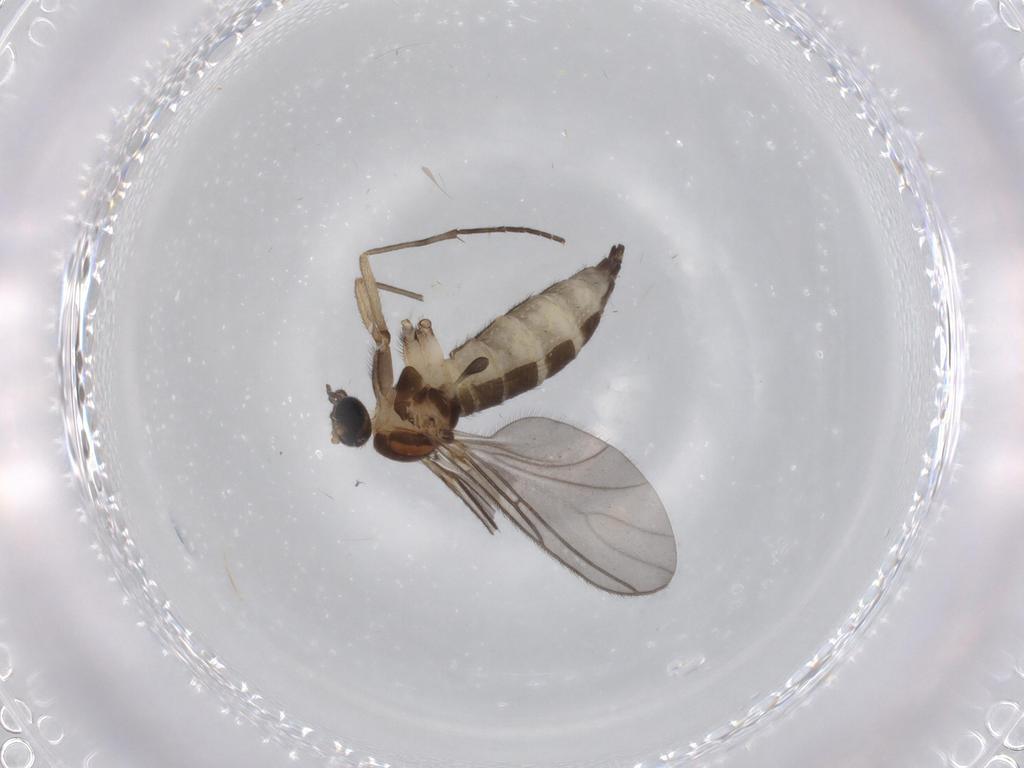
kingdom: Animalia
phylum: Arthropoda
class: Insecta
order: Diptera
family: Sciaridae
